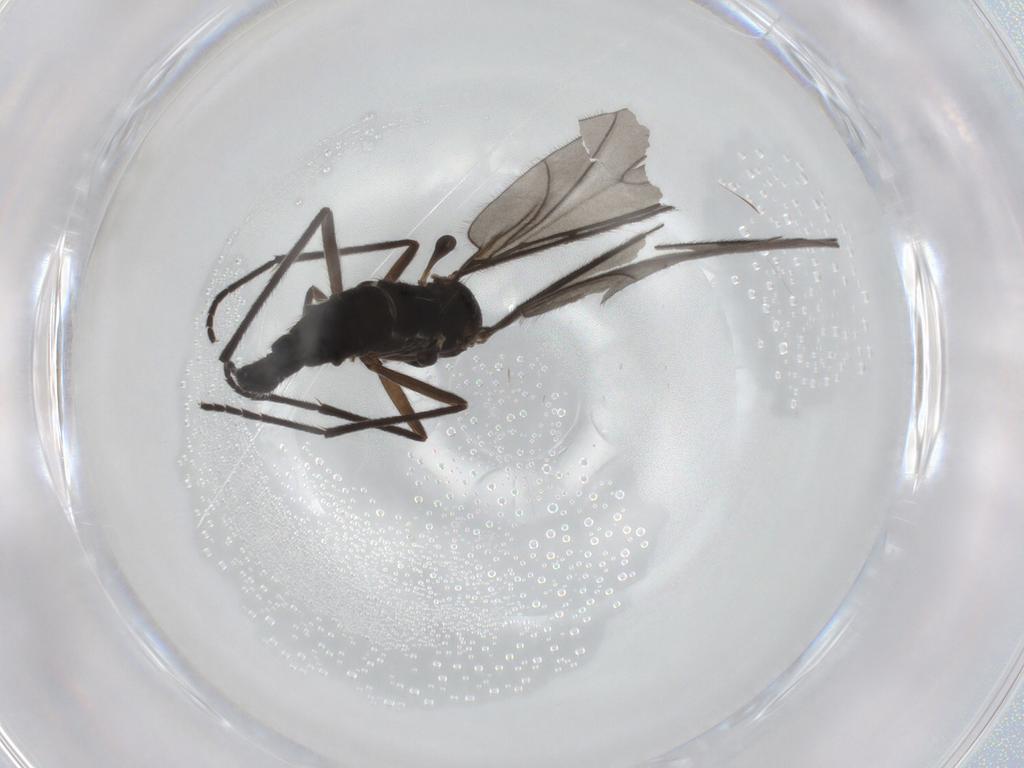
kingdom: Animalia
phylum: Arthropoda
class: Insecta
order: Diptera
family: Sciaridae
